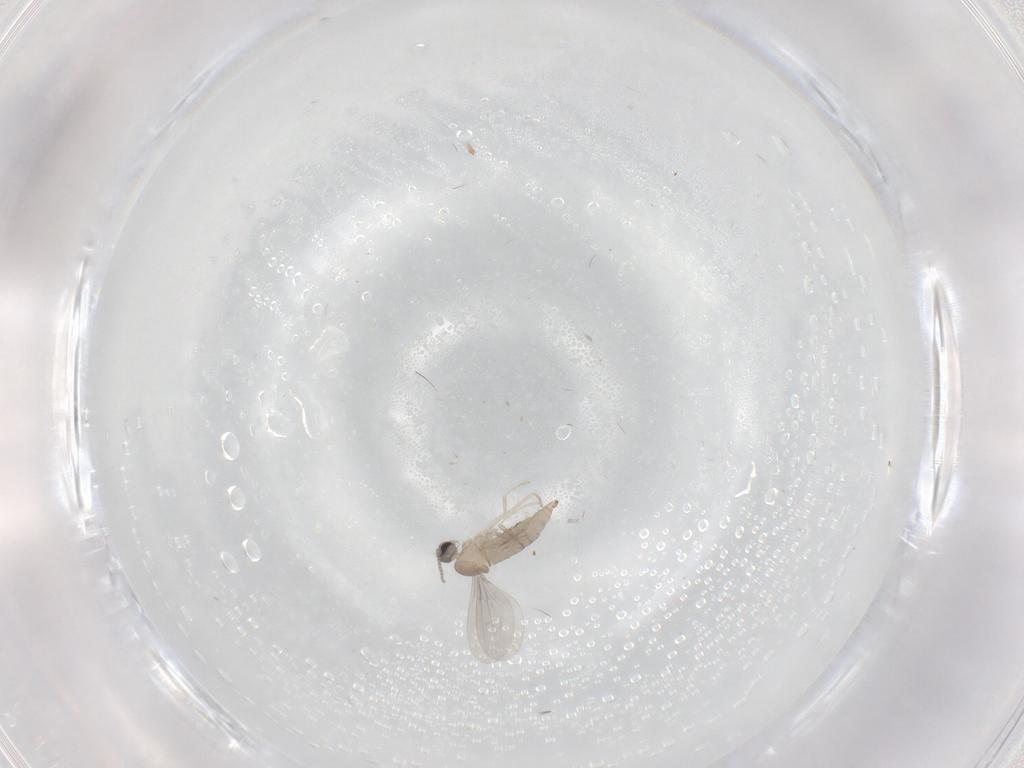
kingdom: Animalia
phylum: Arthropoda
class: Insecta
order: Diptera
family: Cecidomyiidae
